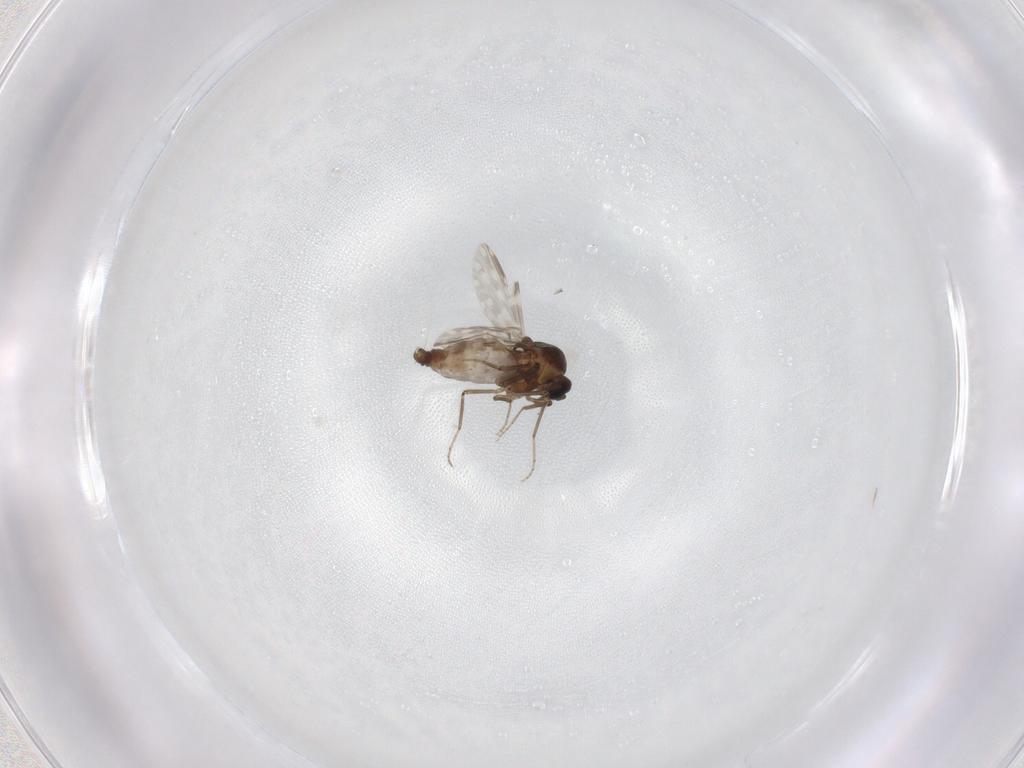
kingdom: Animalia
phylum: Arthropoda
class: Insecta
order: Diptera
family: Ceratopogonidae
